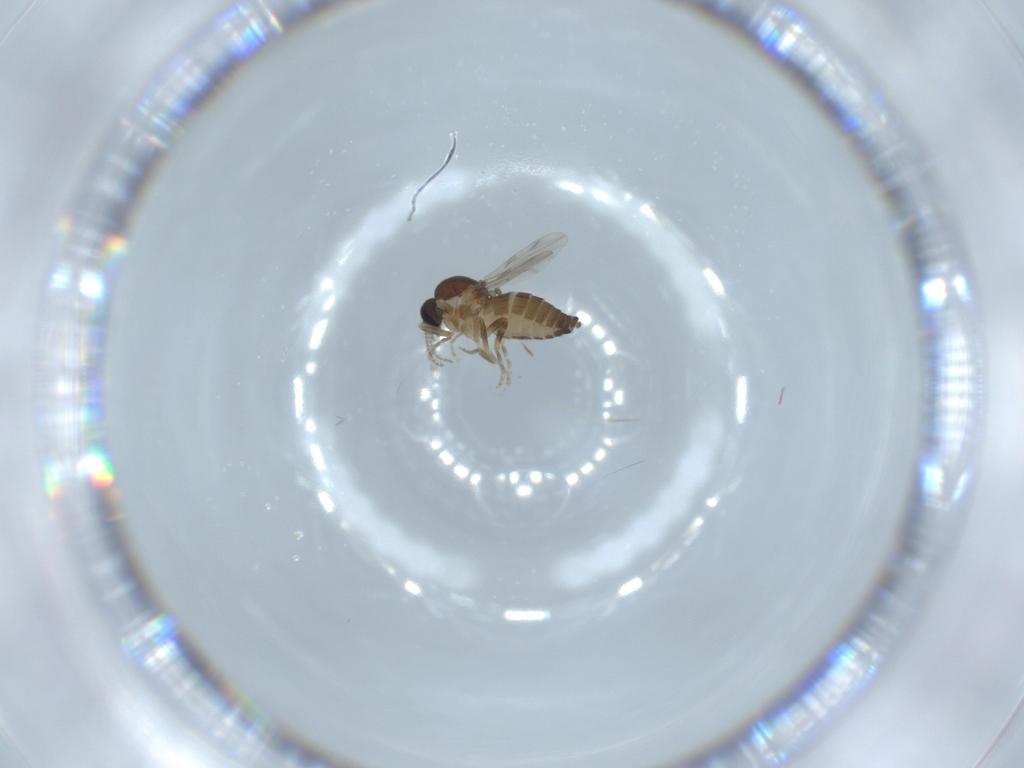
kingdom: Animalia
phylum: Arthropoda
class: Insecta
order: Diptera
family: Ceratopogonidae
